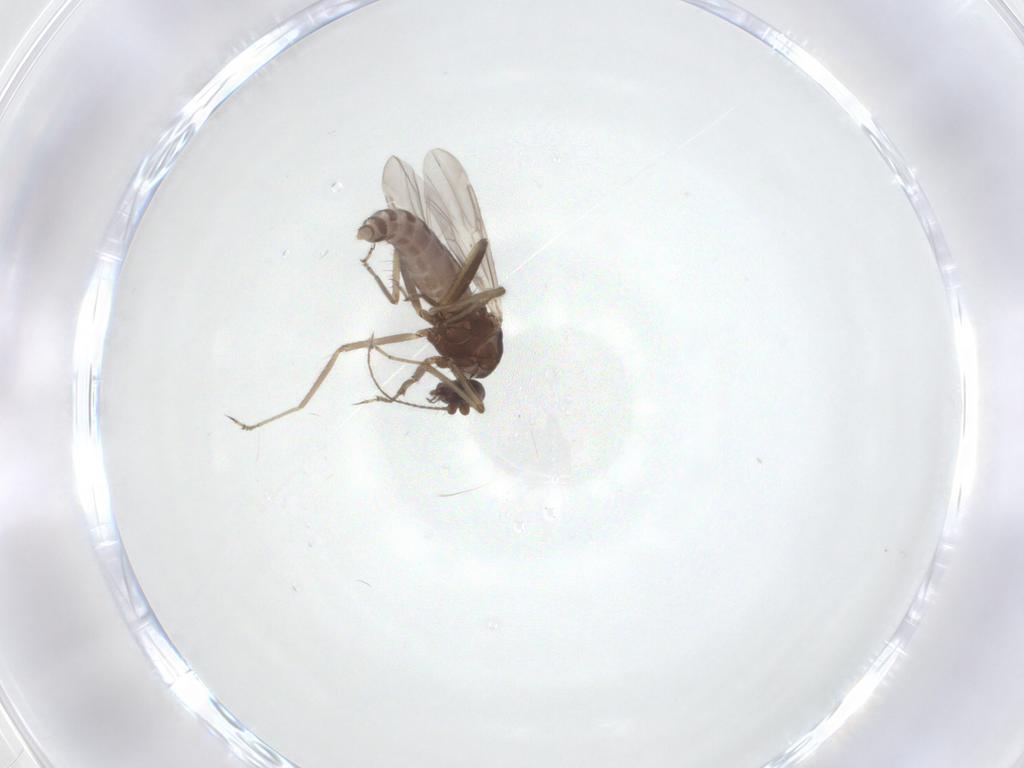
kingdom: Animalia
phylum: Arthropoda
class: Insecta
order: Diptera
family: Ceratopogonidae
